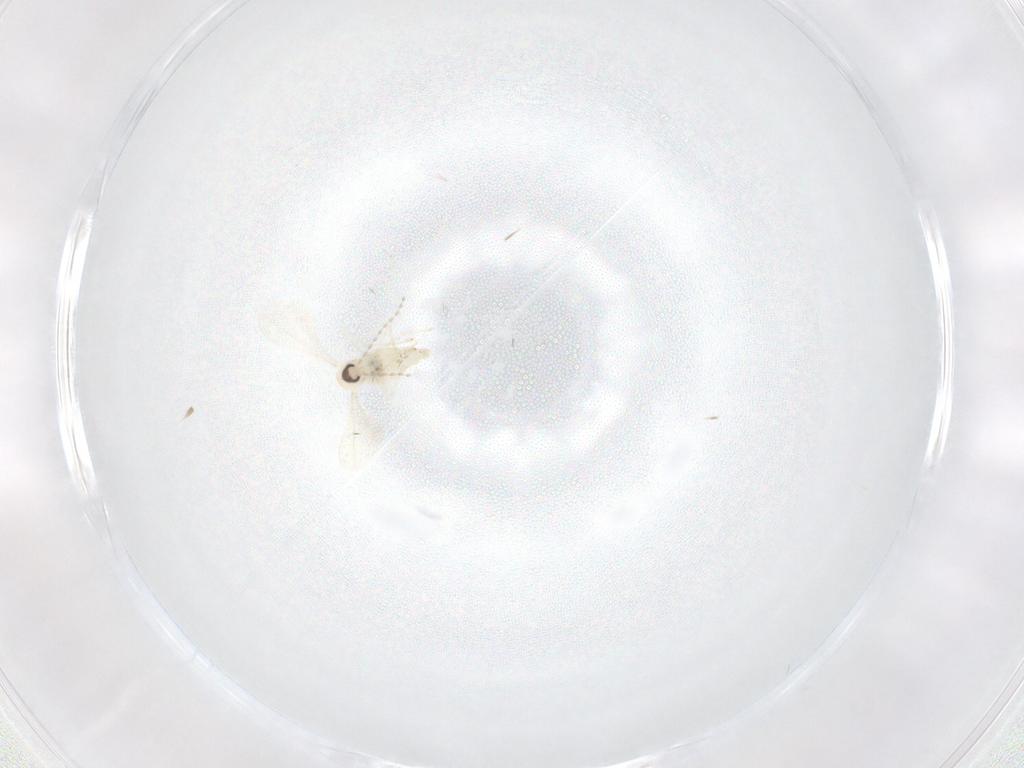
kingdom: Animalia
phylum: Arthropoda
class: Insecta
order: Diptera
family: Cecidomyiidae
